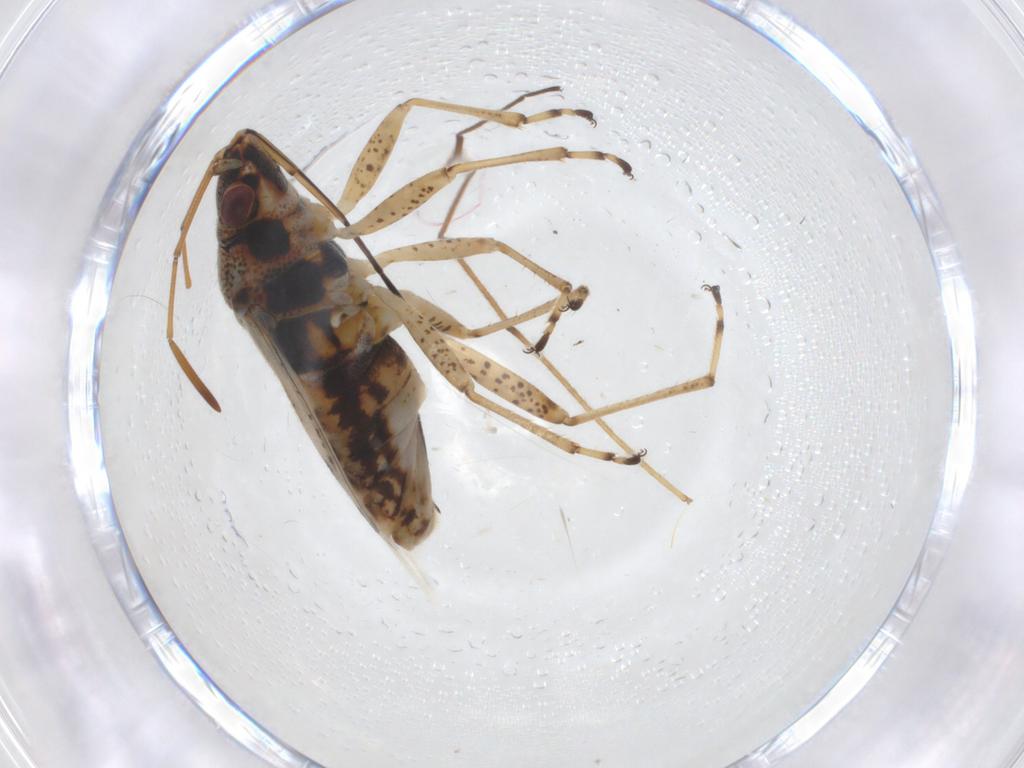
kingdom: Animalia
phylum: Arthropoda
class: Insecta
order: Hemiptera
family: Lygaeidae
